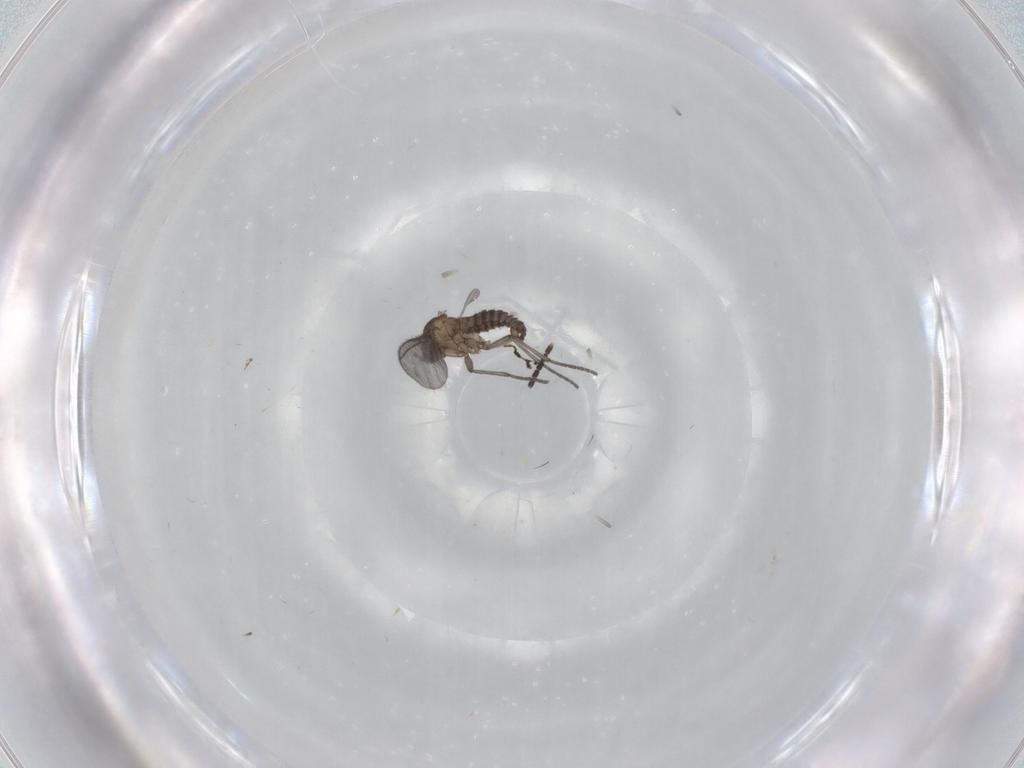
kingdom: Animalia
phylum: Arthropoda
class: Insecta
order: Diptera
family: Sciaridae
